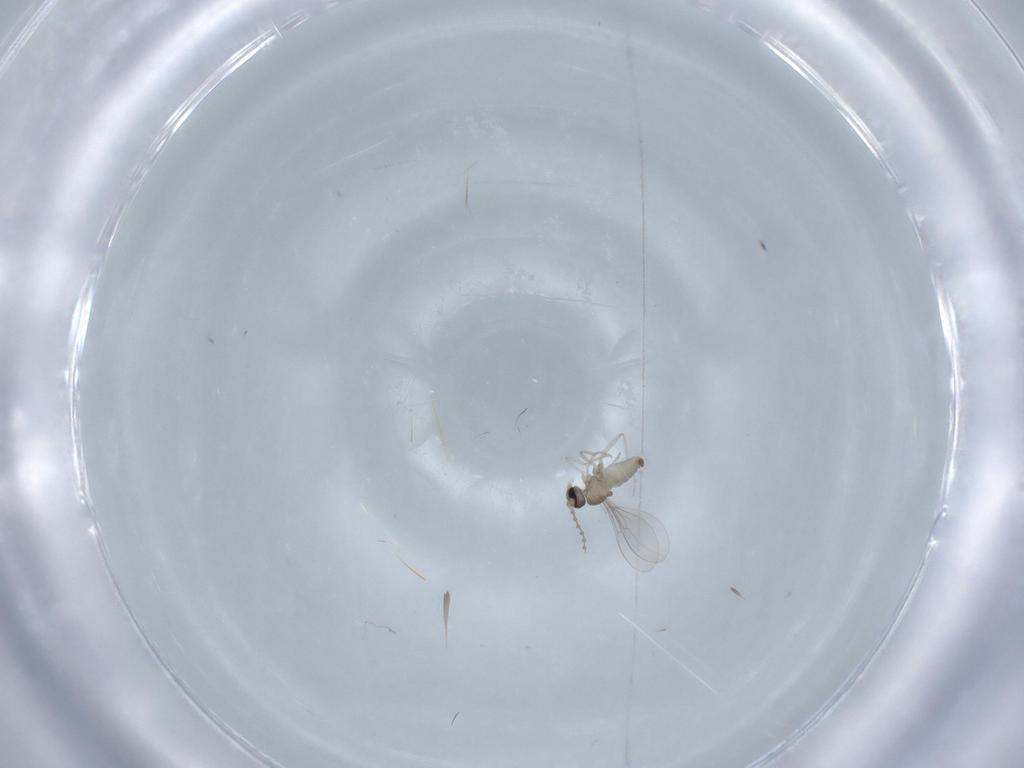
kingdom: Animalia
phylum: Arthropoda
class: Insecta
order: Diptera
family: Cecidomyiidae
